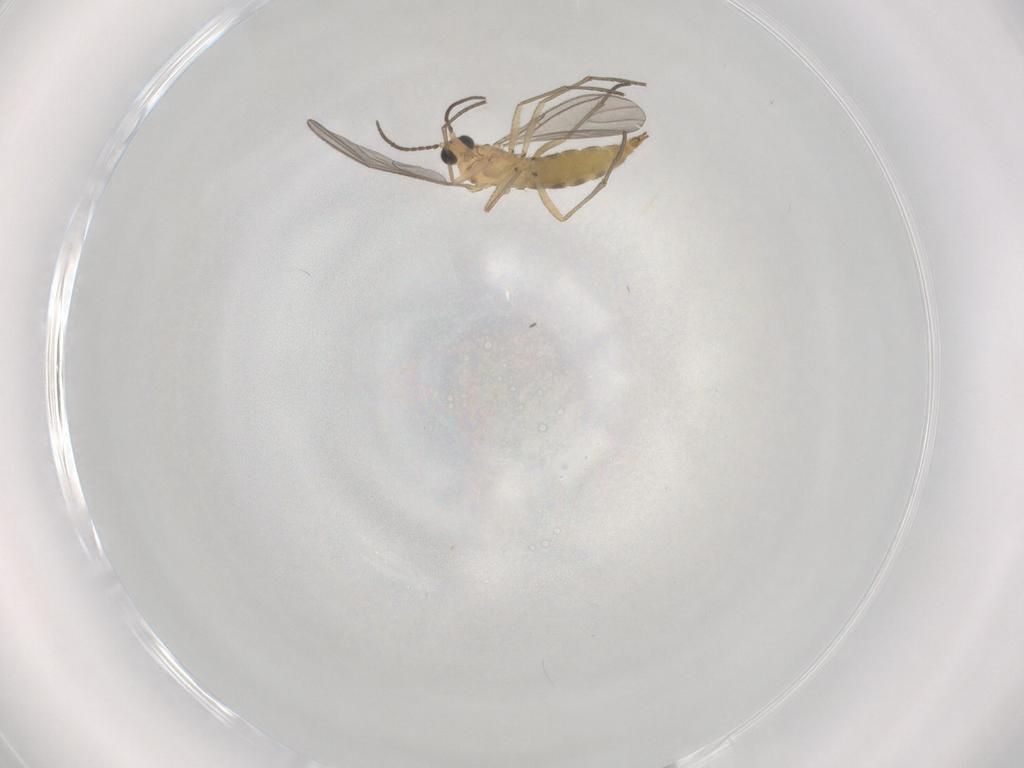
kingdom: Animalia
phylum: Arthropoda
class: Insecta
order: Diptera
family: Sciaridae
